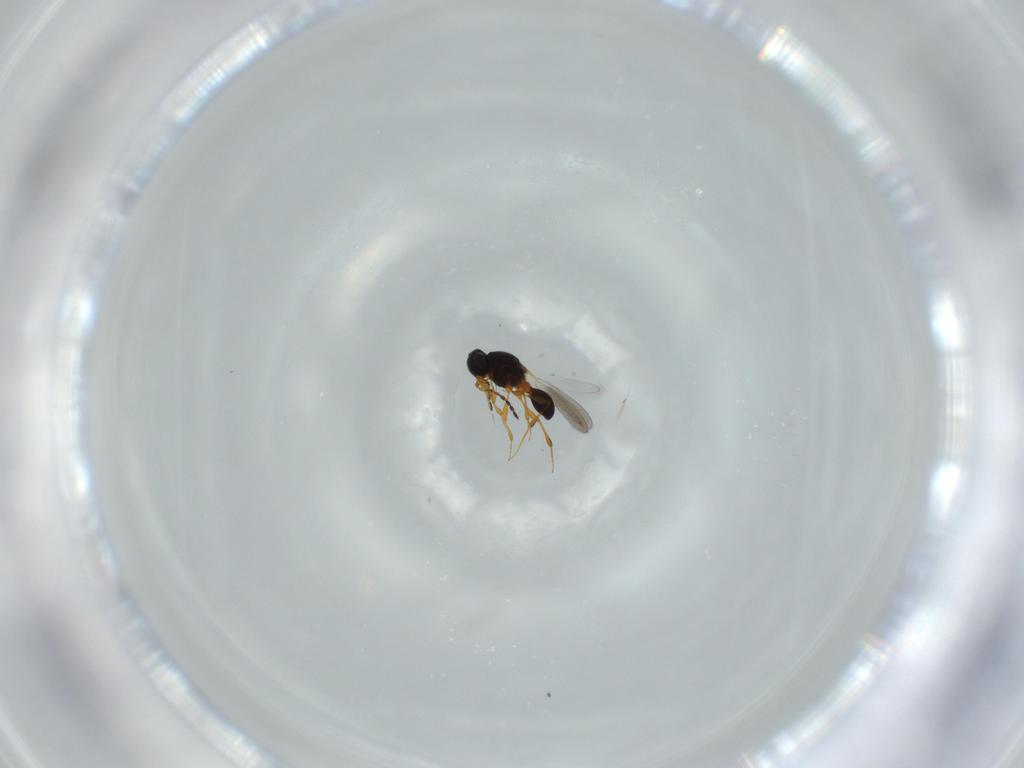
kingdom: Animalia
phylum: Arthropoda
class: Insecta
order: Hymenoptera
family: Platygastridae
